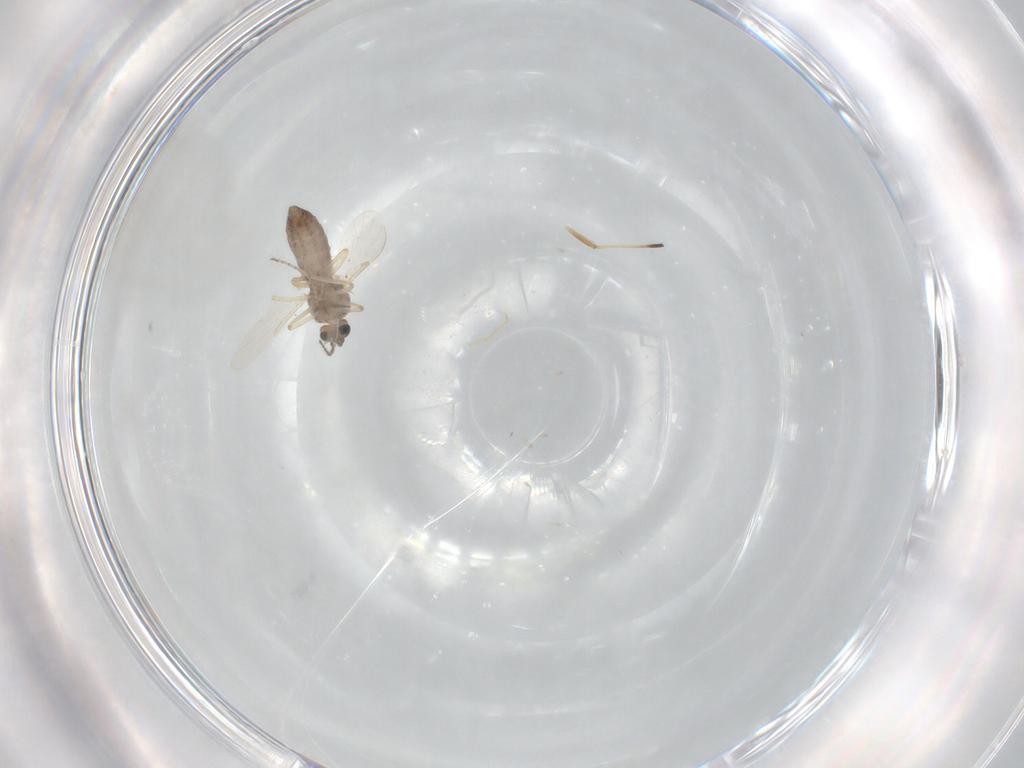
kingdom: Animalia
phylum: Arthropoda
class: Insecta
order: Diptera
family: Ceratopogonidae
